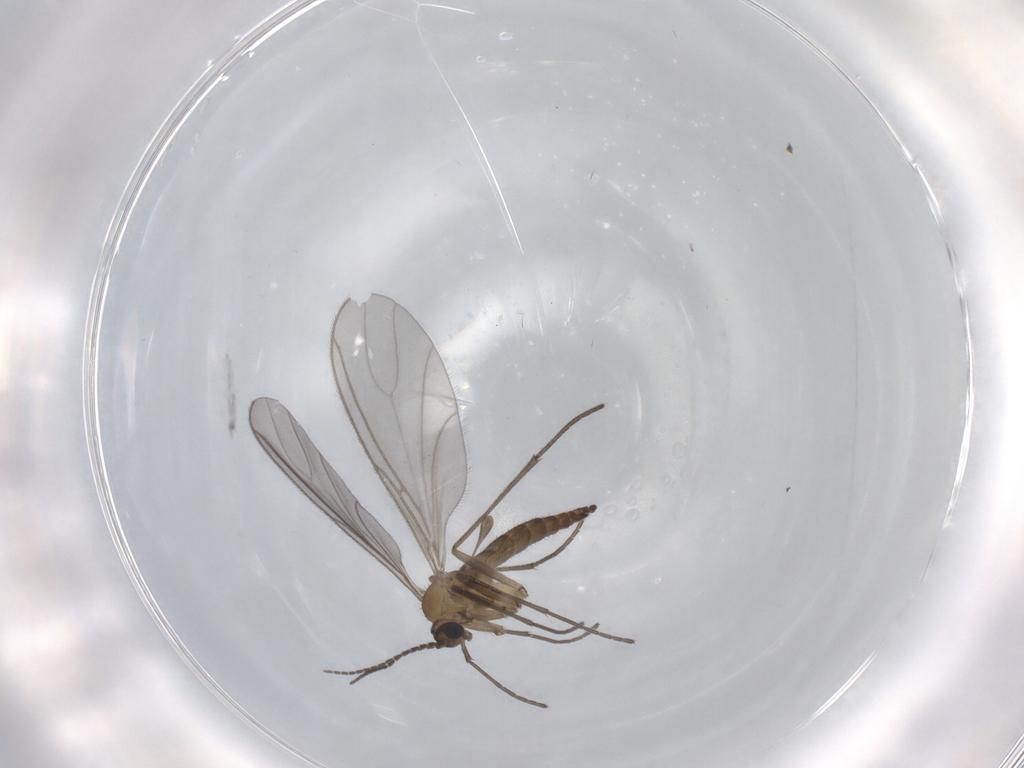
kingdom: Animalia
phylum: Arthropoda
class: Insecta
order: Diptera
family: Sciaridae
